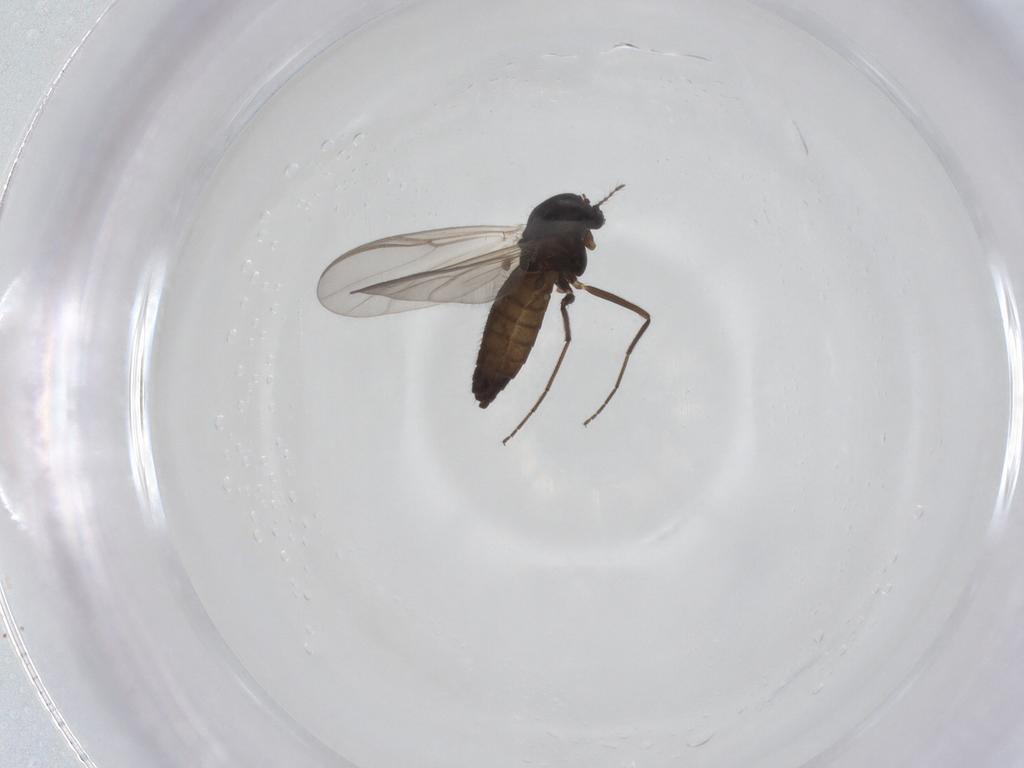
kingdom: Animalia
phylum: Arthropoda
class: Insecta
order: Diptera
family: Chironomidae
